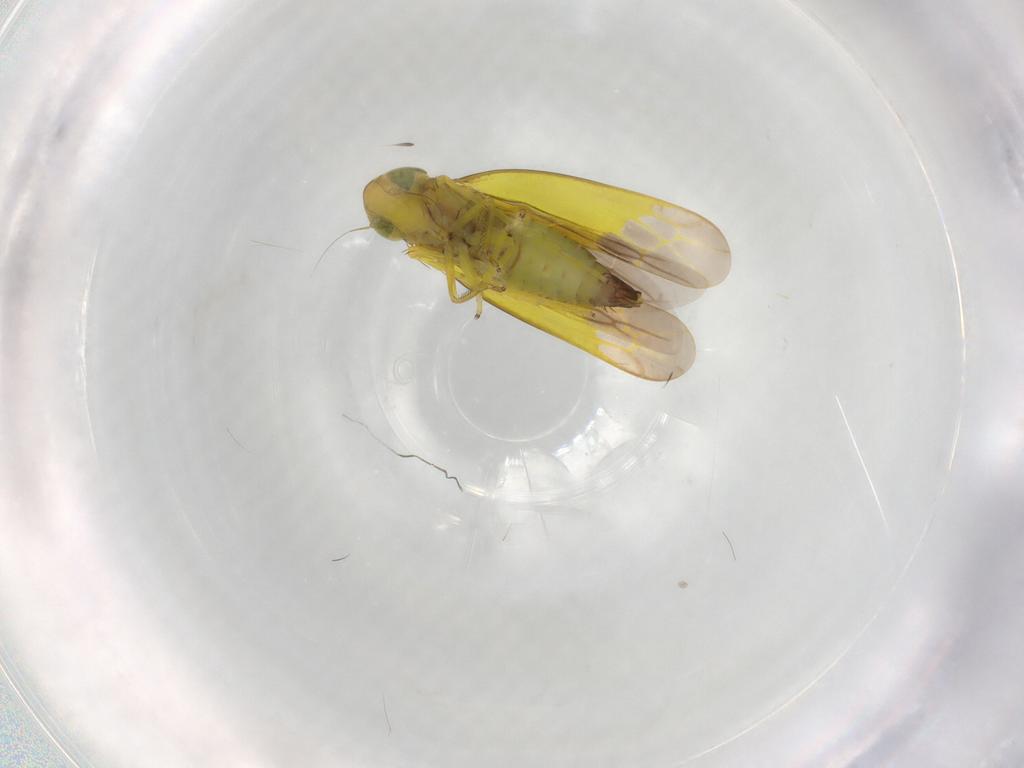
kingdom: Animalia
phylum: Arthropoda
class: Insecta
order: Hemiptera
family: Cicadellidae
